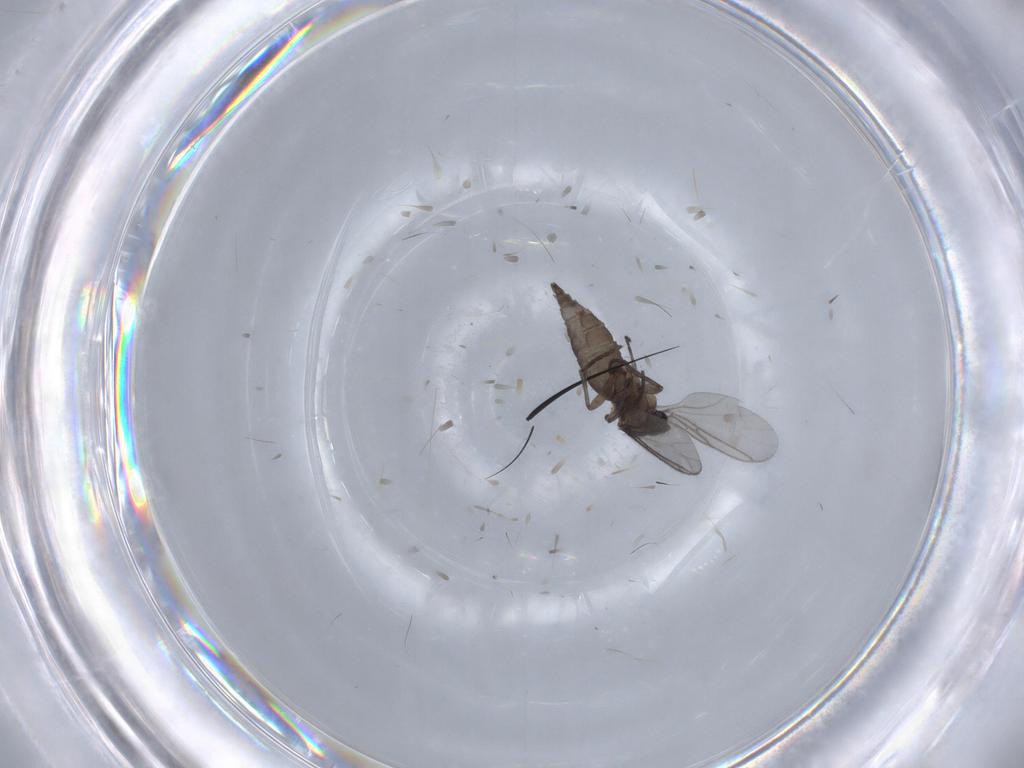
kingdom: Animalia
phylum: Arthropoda
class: Insecta
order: Diptera
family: Sciaridae
